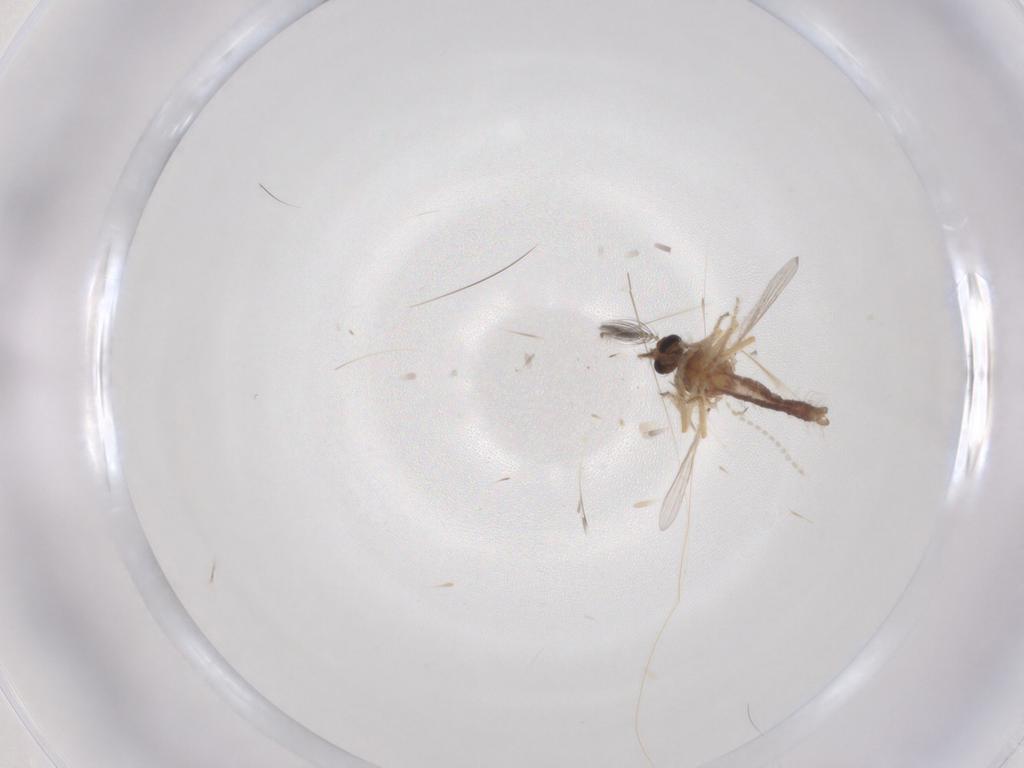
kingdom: Animalia
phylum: Arthropoda
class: Insecta
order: Diptera
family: Ceratopogonidae
